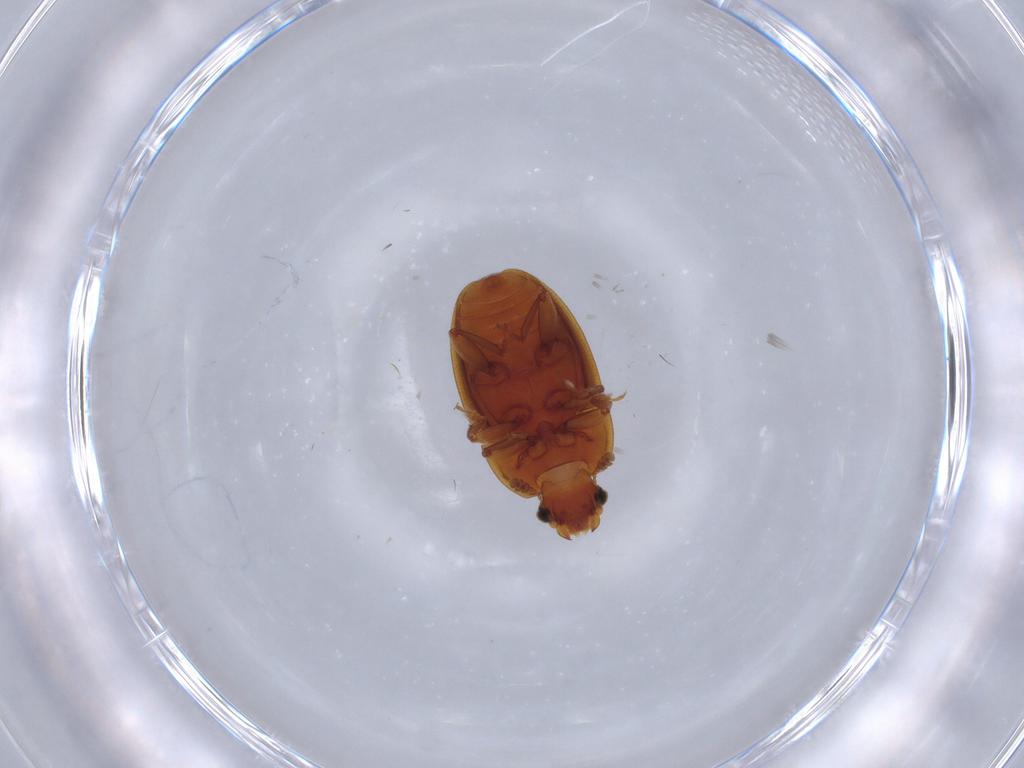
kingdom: Animalia
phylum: Arthropoda
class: Insecta
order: Coleoptera
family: Nitidulidae
